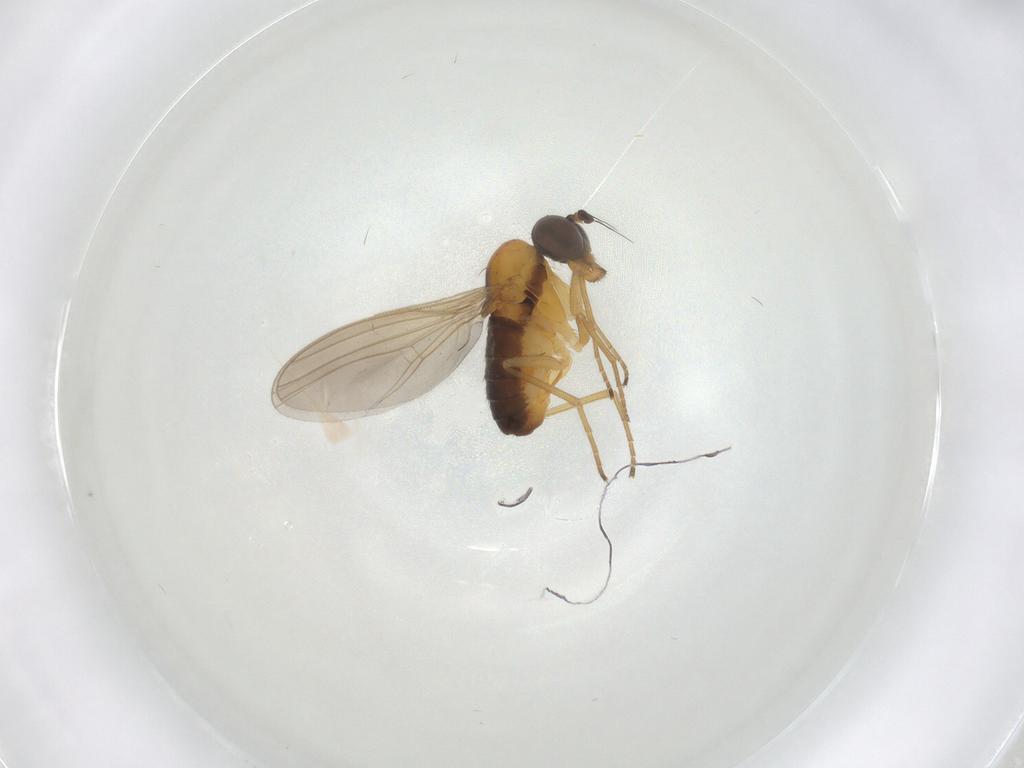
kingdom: Animalia
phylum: Arthropoda
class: Insecta
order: Diptera
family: Dolichopodidae
